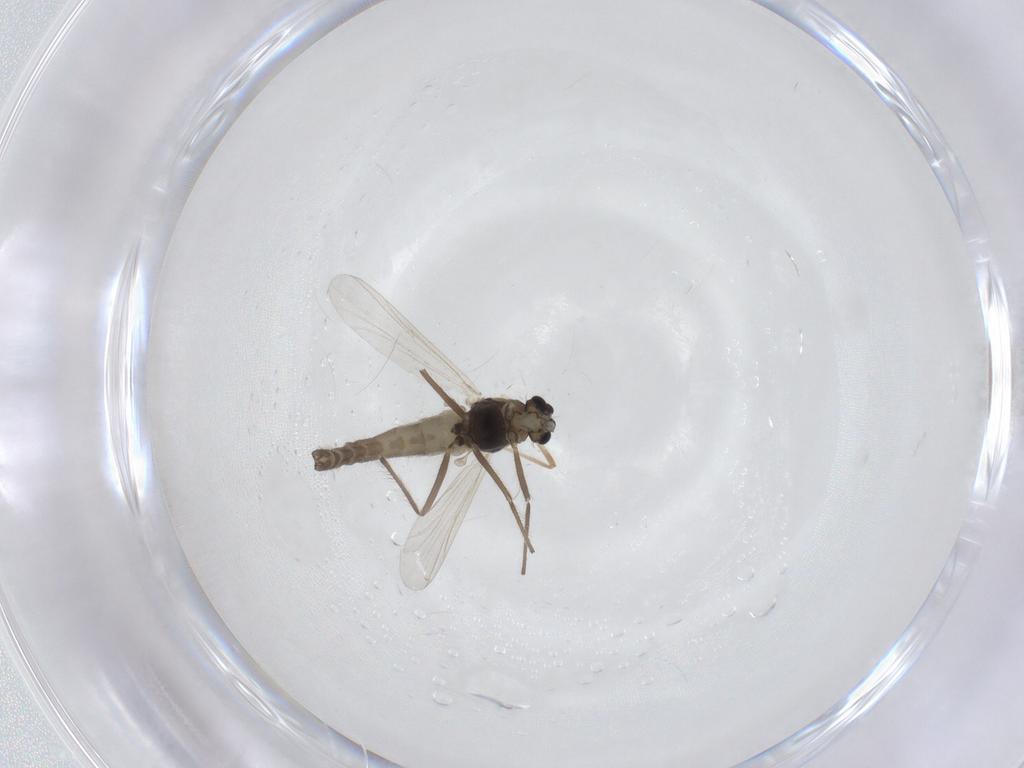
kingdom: Animalia
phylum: Arthropoda
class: Insecta
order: Diptera
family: Chironomidae
